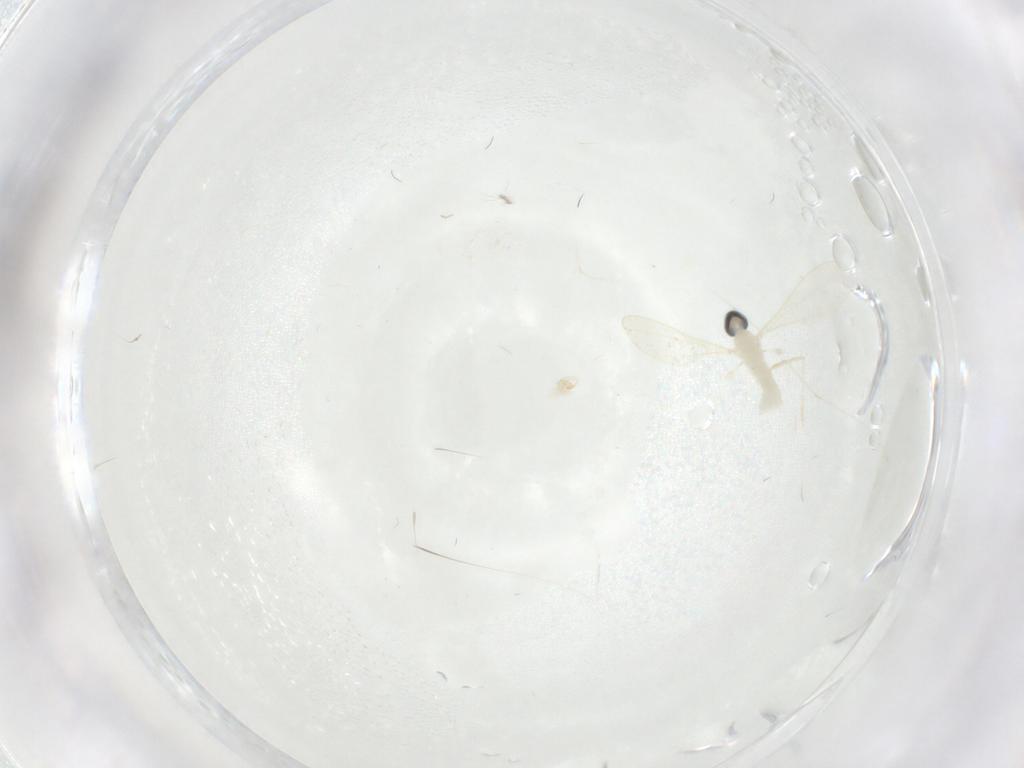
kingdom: Animalia
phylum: Arthropoda
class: Insecta
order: Diptera
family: Cecidomyiidae
